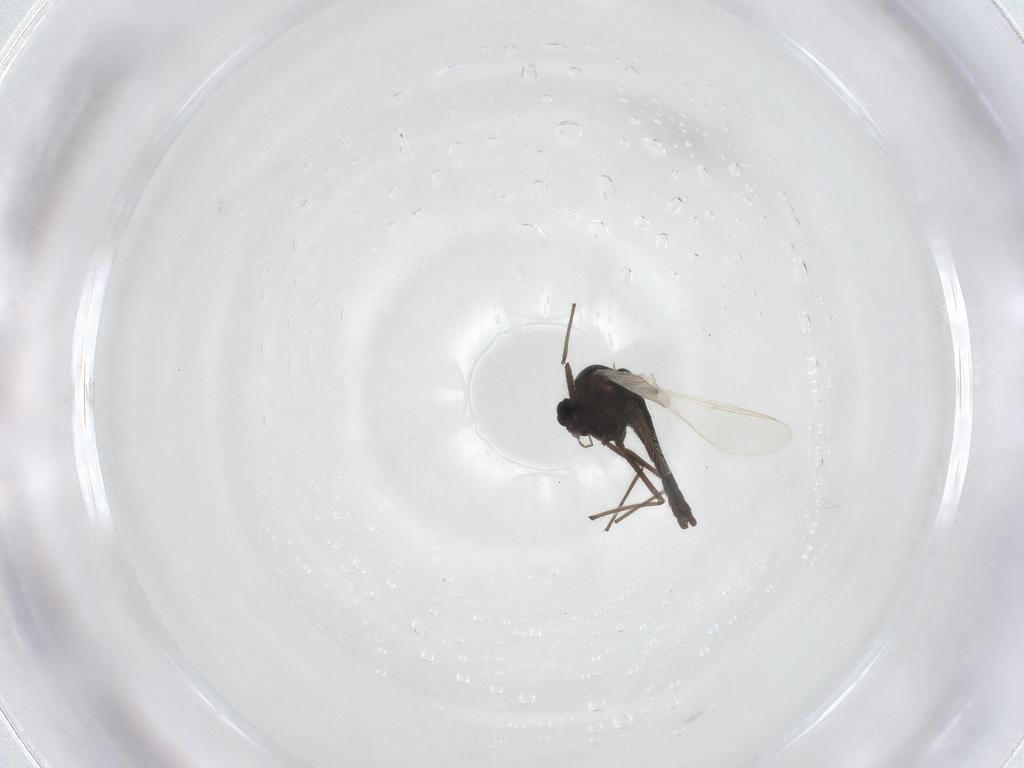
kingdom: Animalia
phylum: Arthropoda
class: Insecta
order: Diptera
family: Chironomidae
